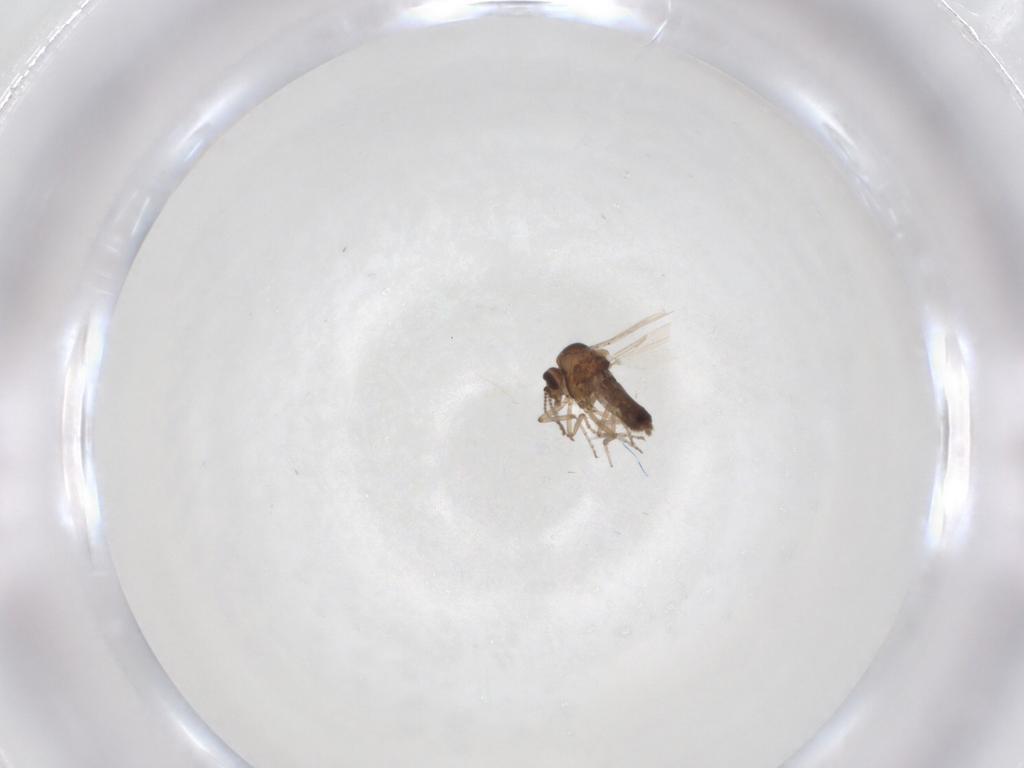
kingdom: Animalia
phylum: Arthropoda
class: Insecta
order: Diptera
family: Ceratopogonidae
